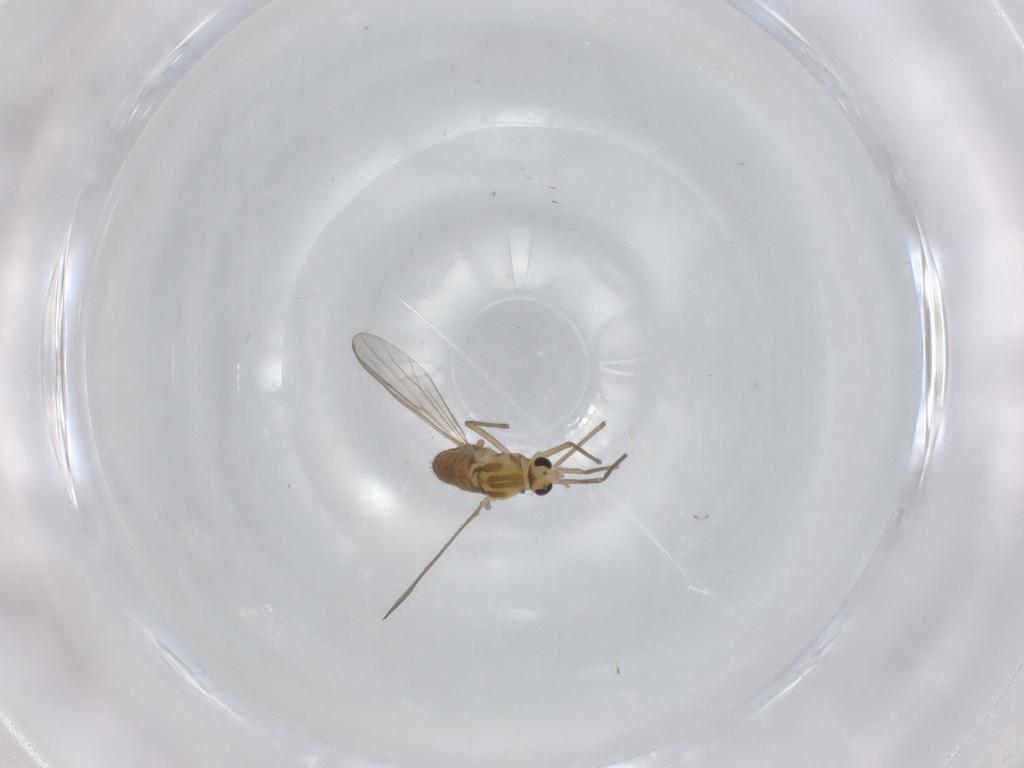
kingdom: Animalia
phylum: Arthropoda
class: Insecta
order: Diptera
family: Chironomidae
